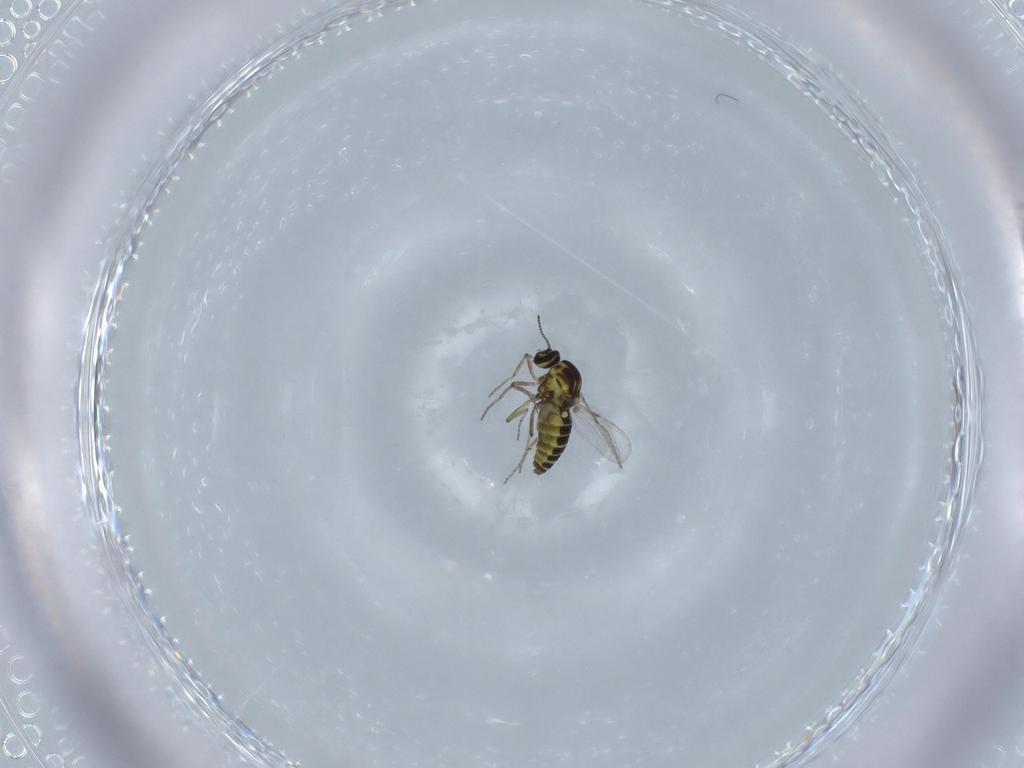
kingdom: Animalia
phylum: Arthropoda
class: Insecta
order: Diptera
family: Ceratopogonidae
